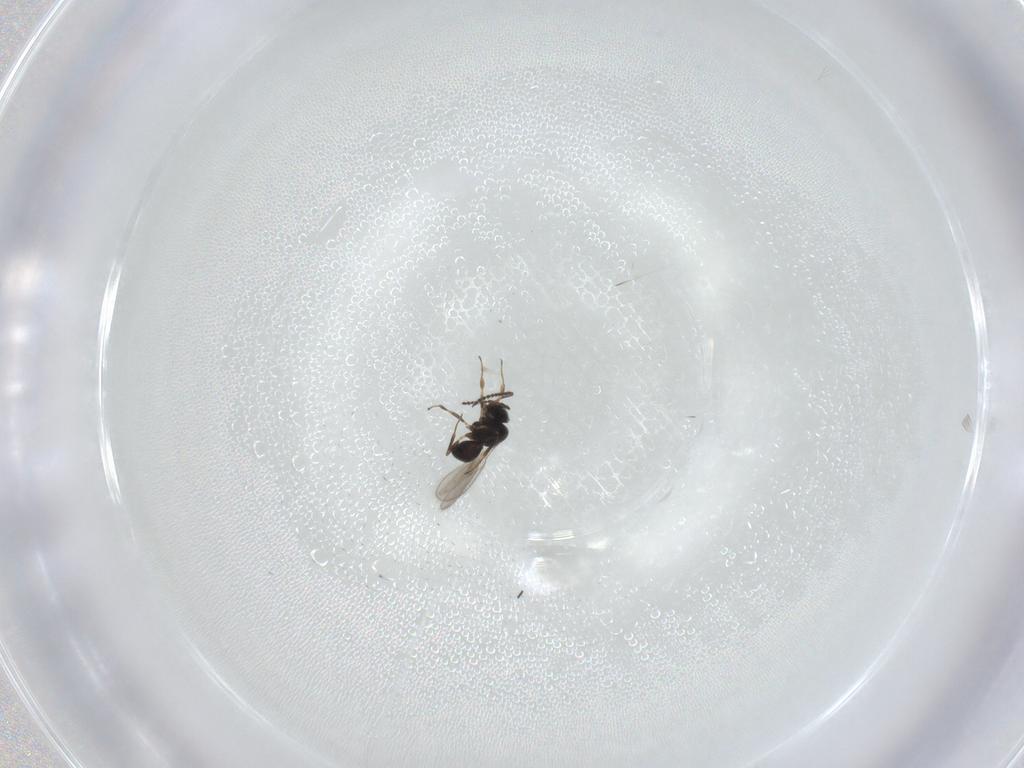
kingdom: Animalia
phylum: Arthropoda
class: Insecta
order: Hymenoptera
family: Scelionidae
